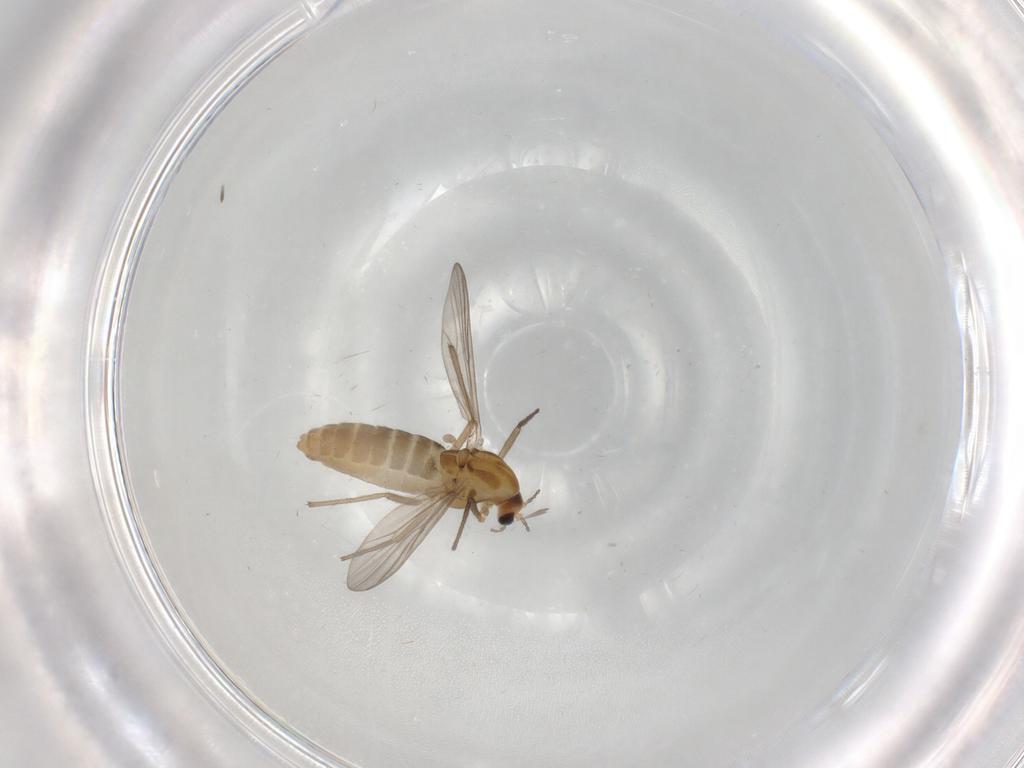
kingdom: Animalia
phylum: Arthropoda
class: Insecta
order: Diptera
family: Chironomidae
